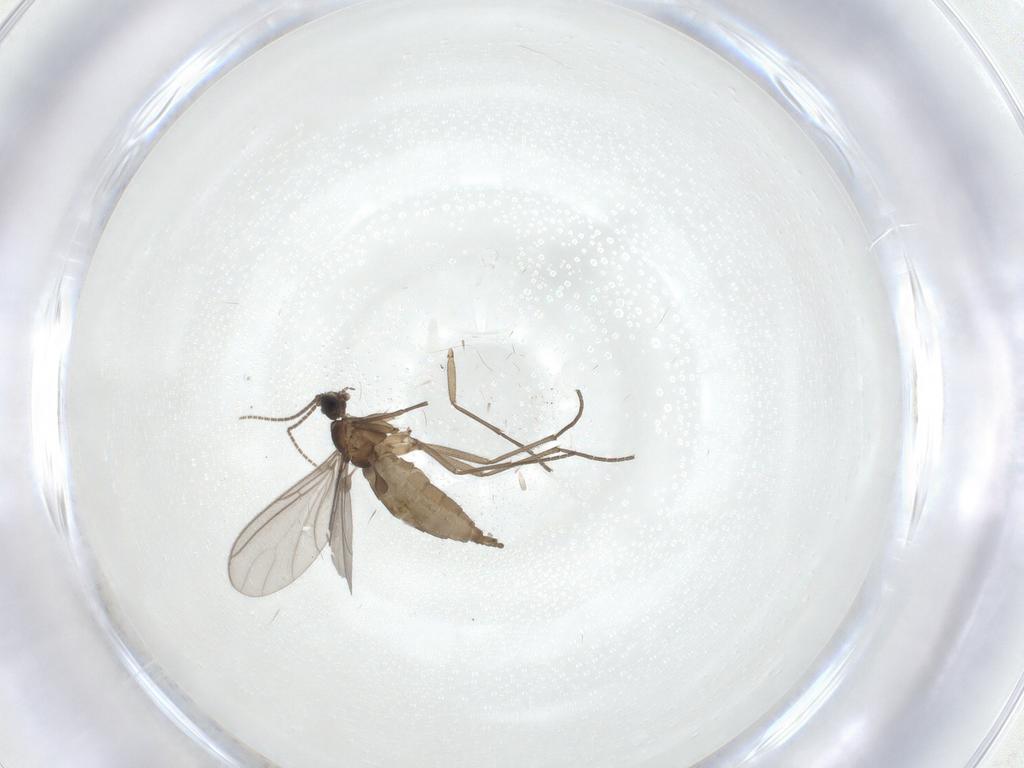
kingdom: Animalia
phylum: Arthropoda
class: Insecta
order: Diptera
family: Sciaridae
